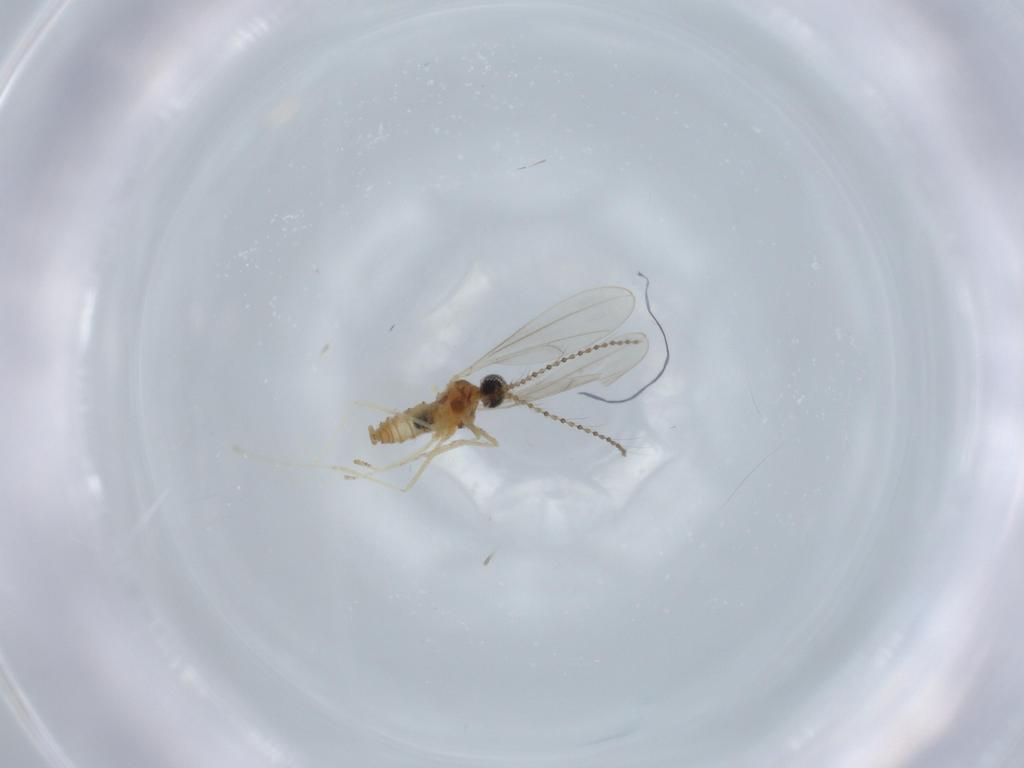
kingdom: Animalia
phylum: Arthropoda
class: Insecta
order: Diptera
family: Cecidomyiidae
